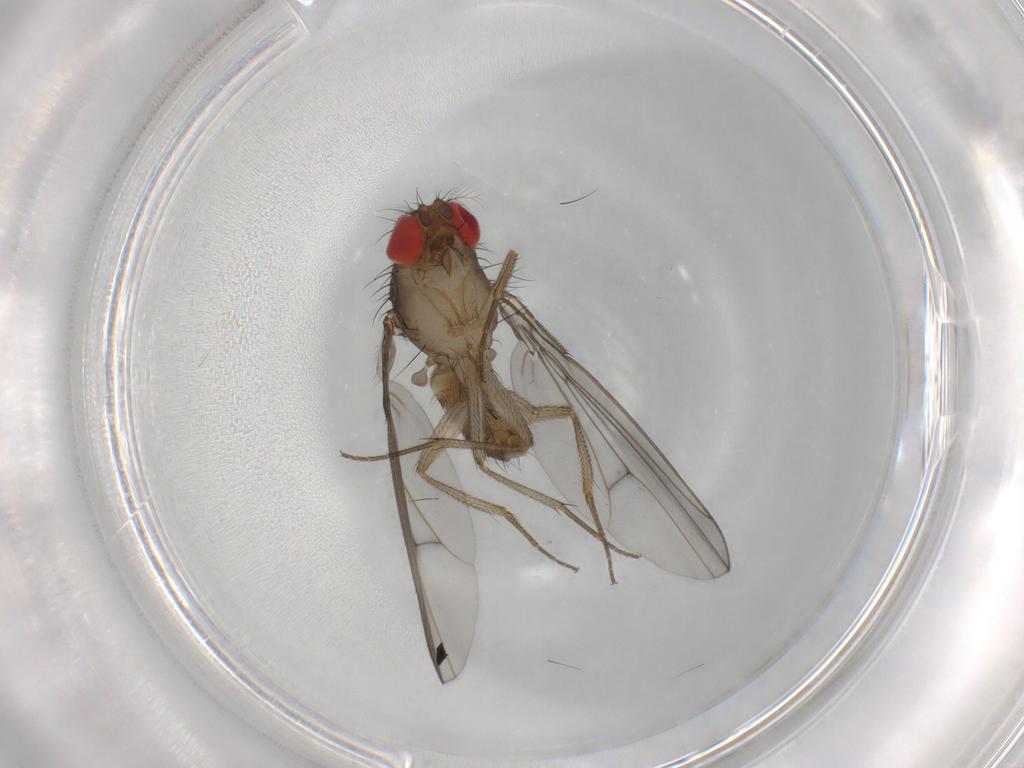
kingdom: Animalia
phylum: Arthropoda
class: Insecta
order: Diptera
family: Drosophilidae
